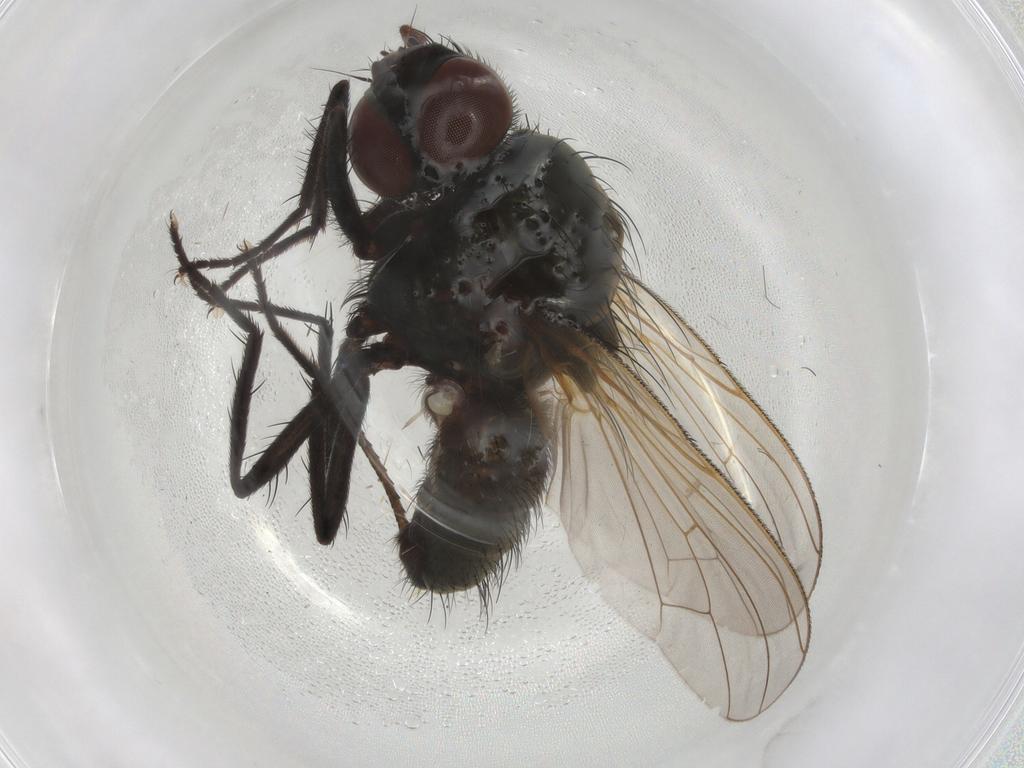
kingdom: Animalia
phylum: Arthropoda
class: Insecta
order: Diptera
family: Anthomyiidae
